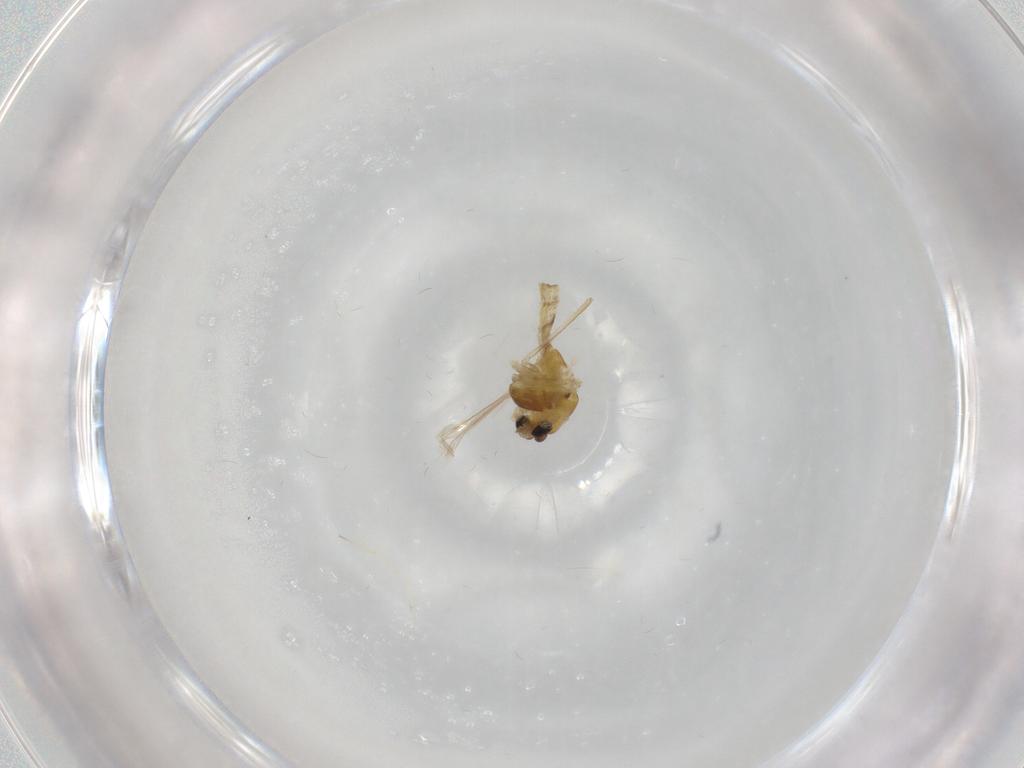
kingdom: Animalia
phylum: Arthropoda
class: Insecta
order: Diptera
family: Chironomidae
